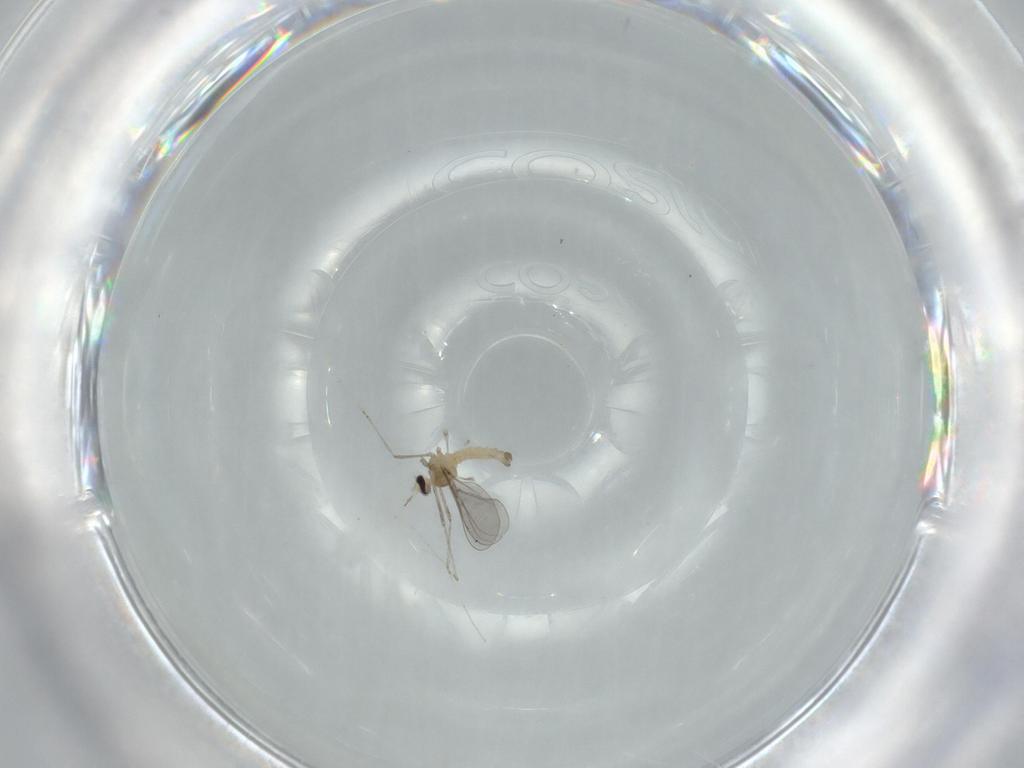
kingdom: Animalia
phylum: Arthropoda
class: Insecta
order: Diptera
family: Cecidomyiidae
